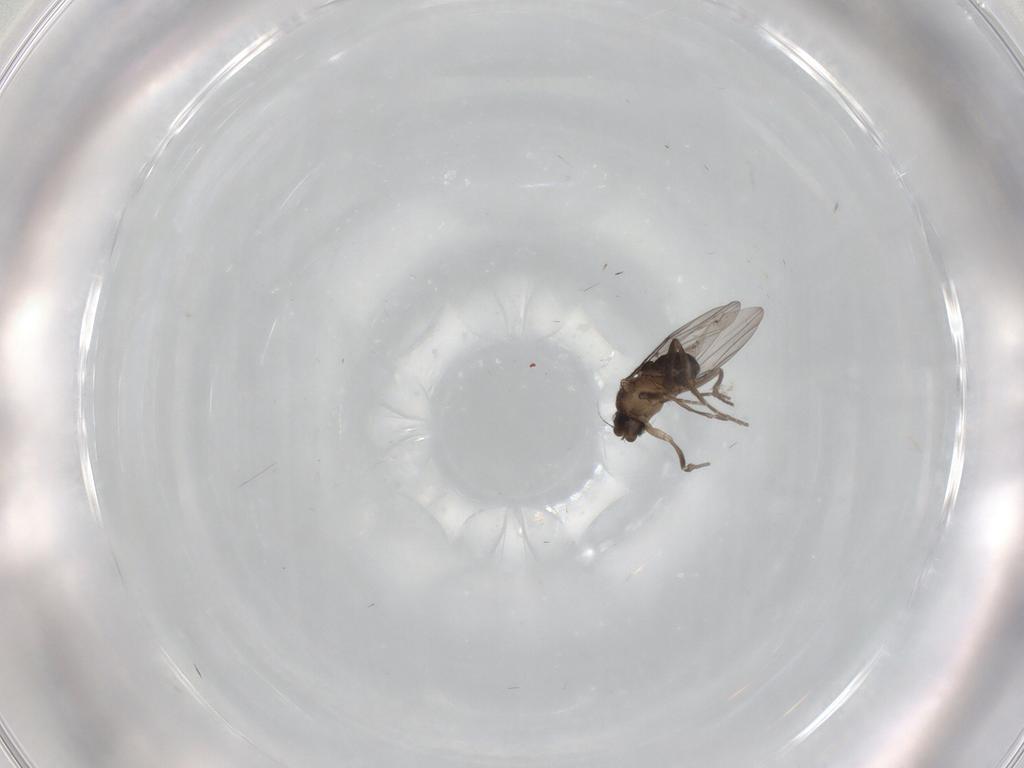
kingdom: Animalia
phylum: Arthropoda
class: Insecta
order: Diptera
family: Cecidomyiidae
